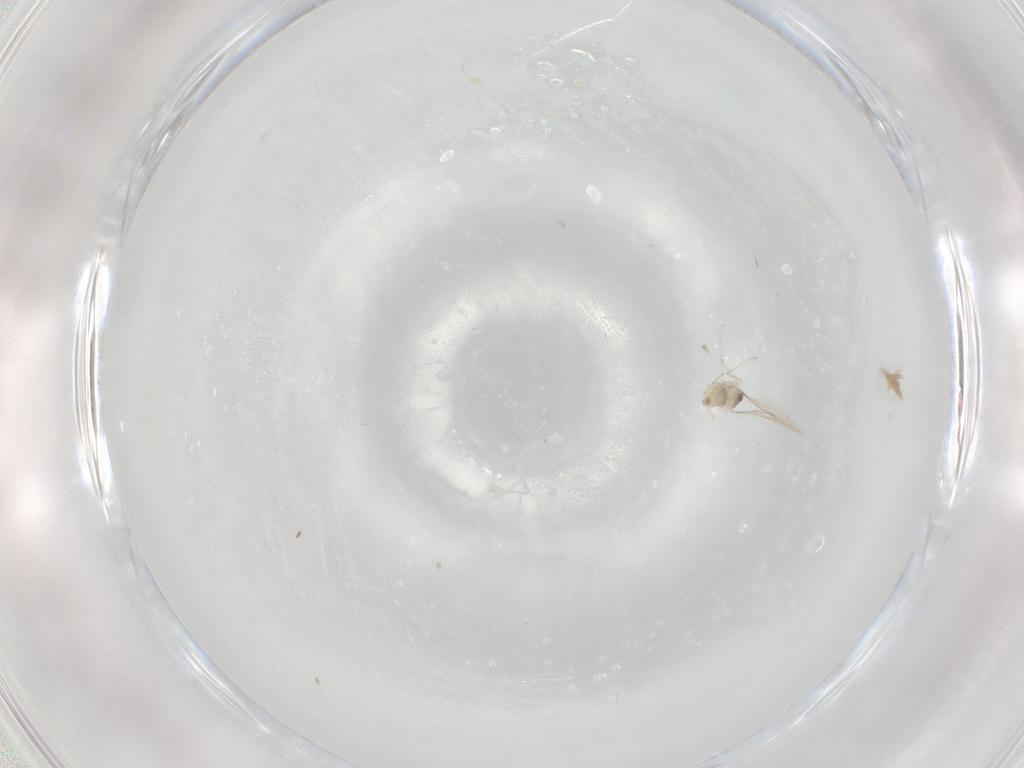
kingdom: Animalia
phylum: Arthropoda
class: Insecta
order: Diptera
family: Cecidomyiidae
